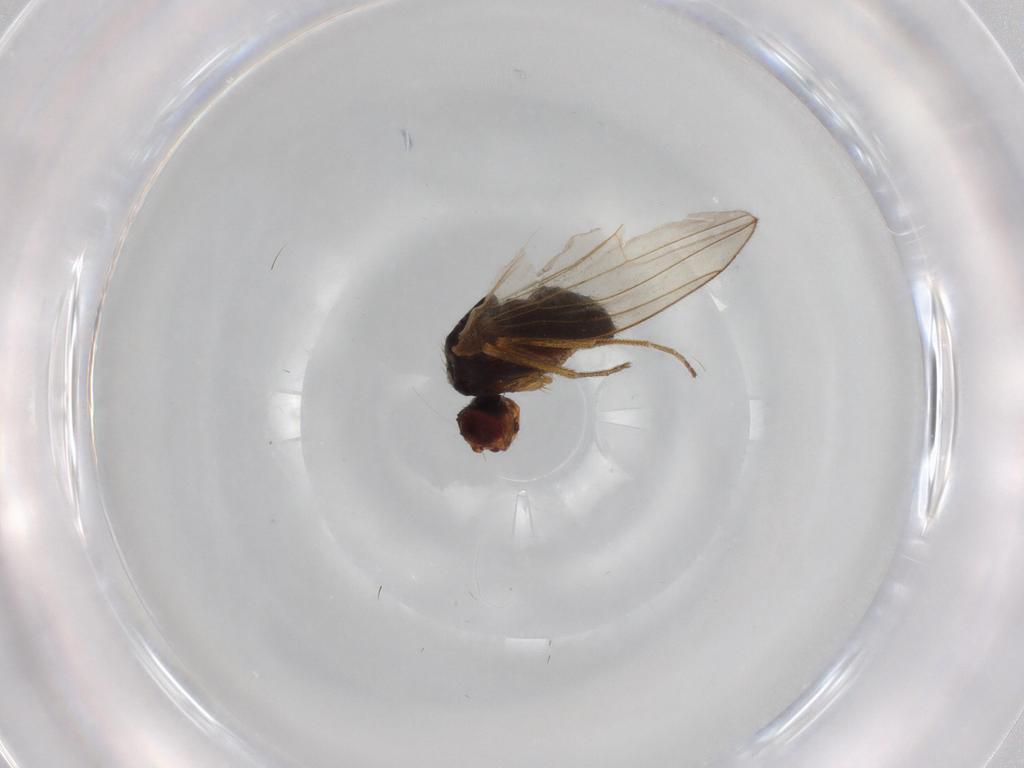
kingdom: Animalia
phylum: Arthropoda
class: Insecta
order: Diptera
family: Drosophilidae
